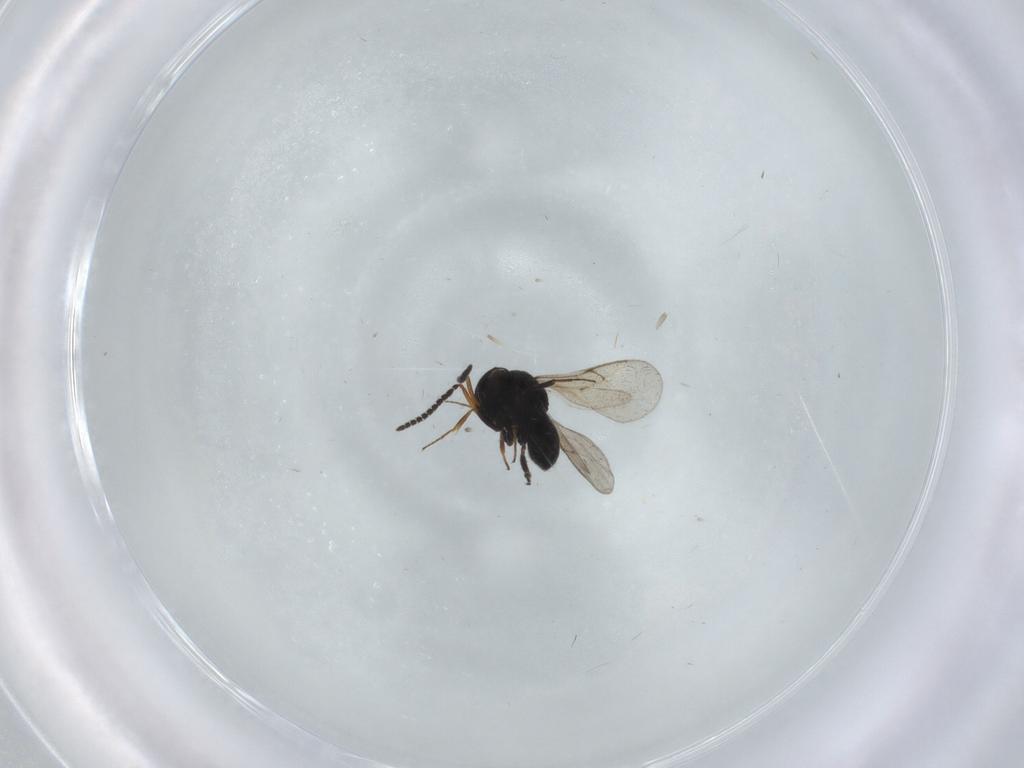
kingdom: Animalia
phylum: Arthropoda
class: Insecta
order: Hymenoptera
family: Scelionidae
